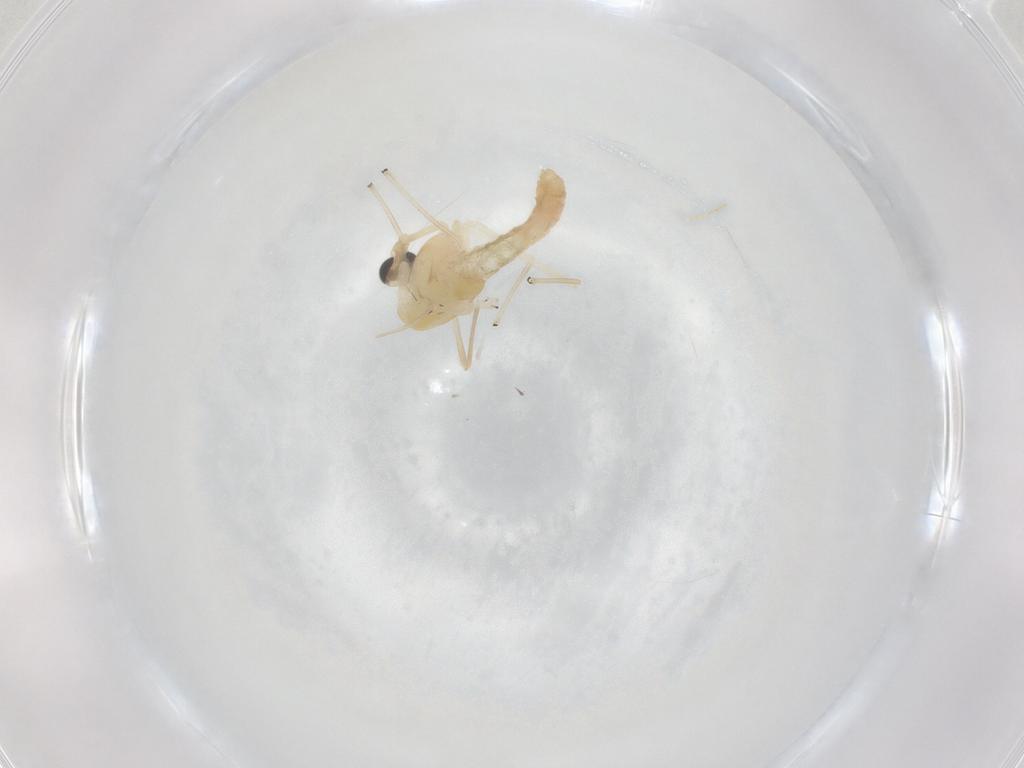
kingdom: Animalia
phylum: Arthropoda
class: Insecta
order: Diptera
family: Chironomidae
